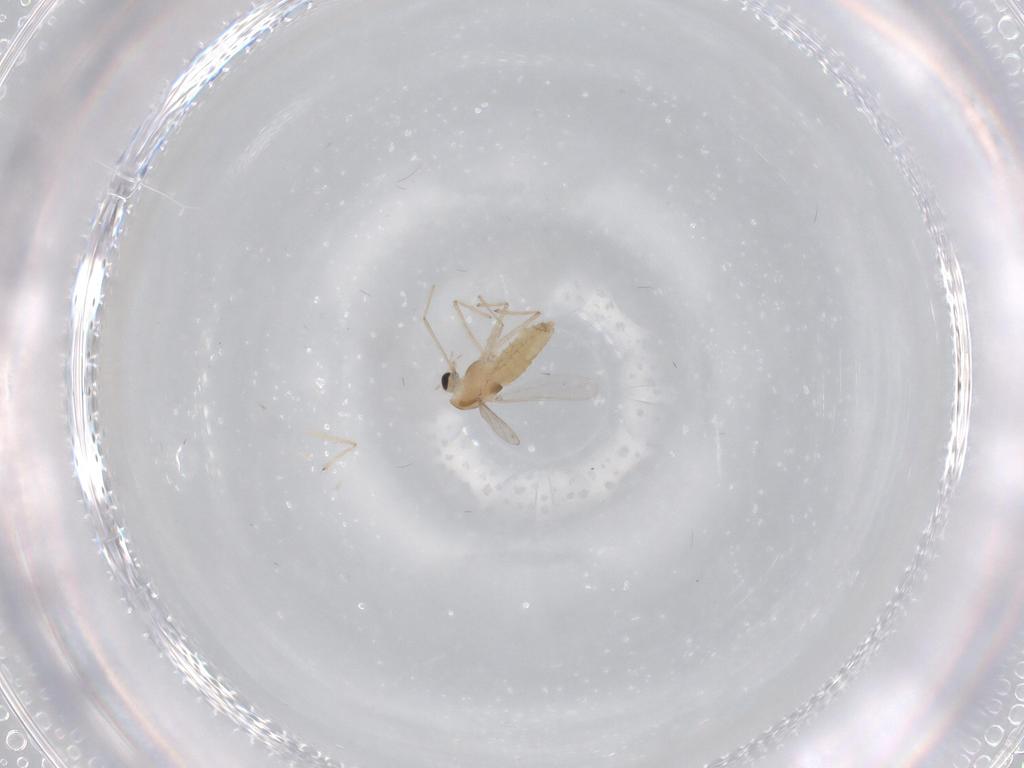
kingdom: Animalia
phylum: Arthropoda
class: Insecta
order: Diptera
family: Chironomidae
